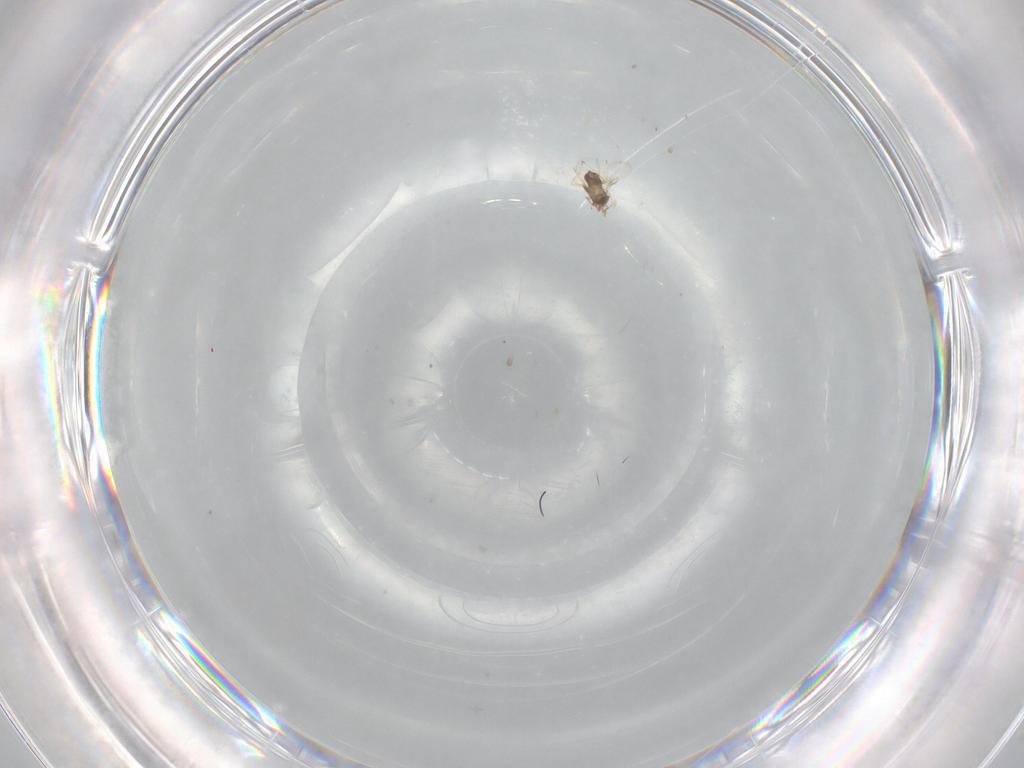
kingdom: Animalia
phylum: Arthropoda
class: Insecta
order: Hymenoptera
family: Trichogrammatidae
